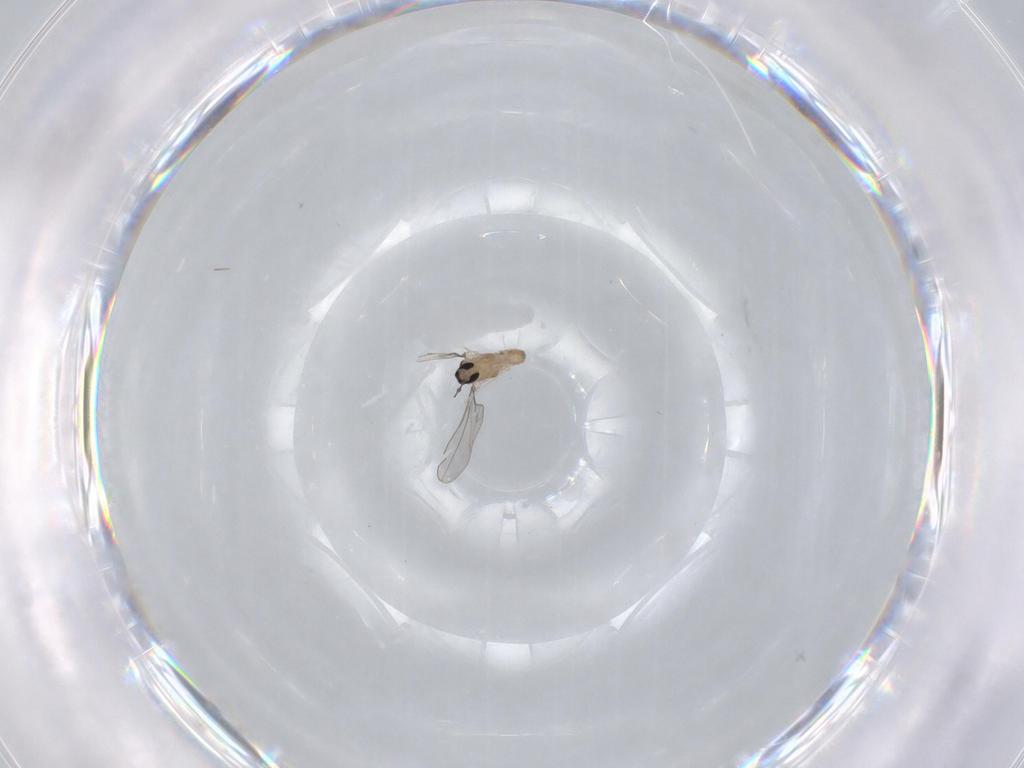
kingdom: Animalia
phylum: Arthropoda
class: Insecta
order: Diptera
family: Cecidomyiidae
